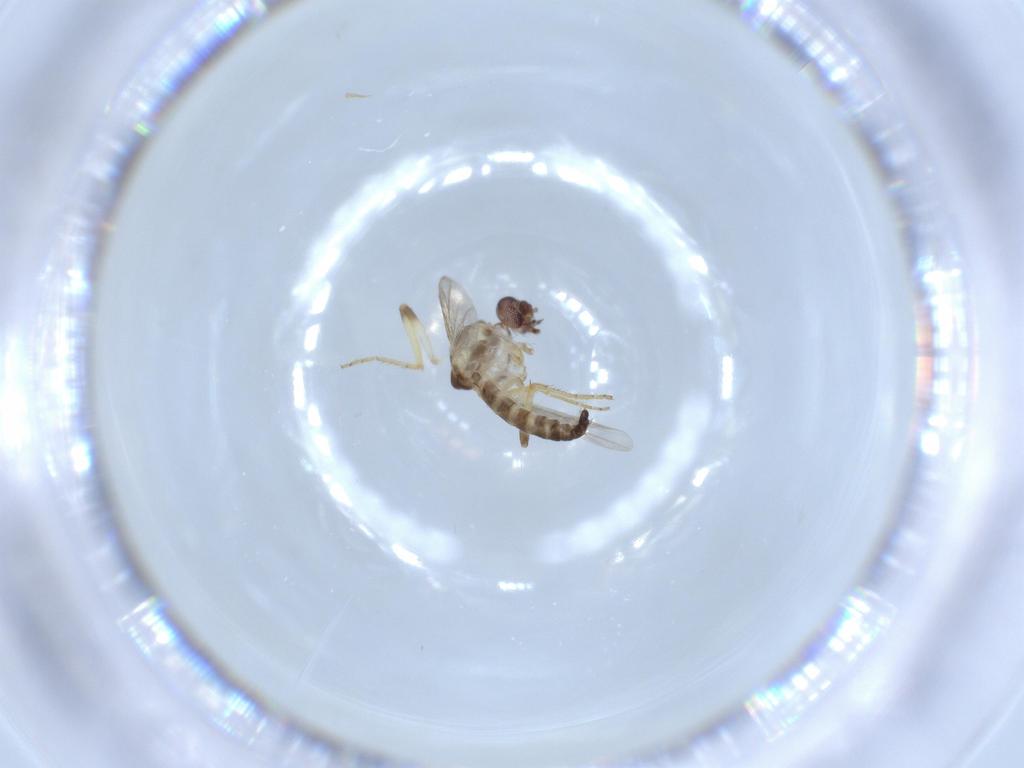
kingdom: Animalia
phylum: Arthropoda
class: Insecta
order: Diptera
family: Ceratopogonidae
